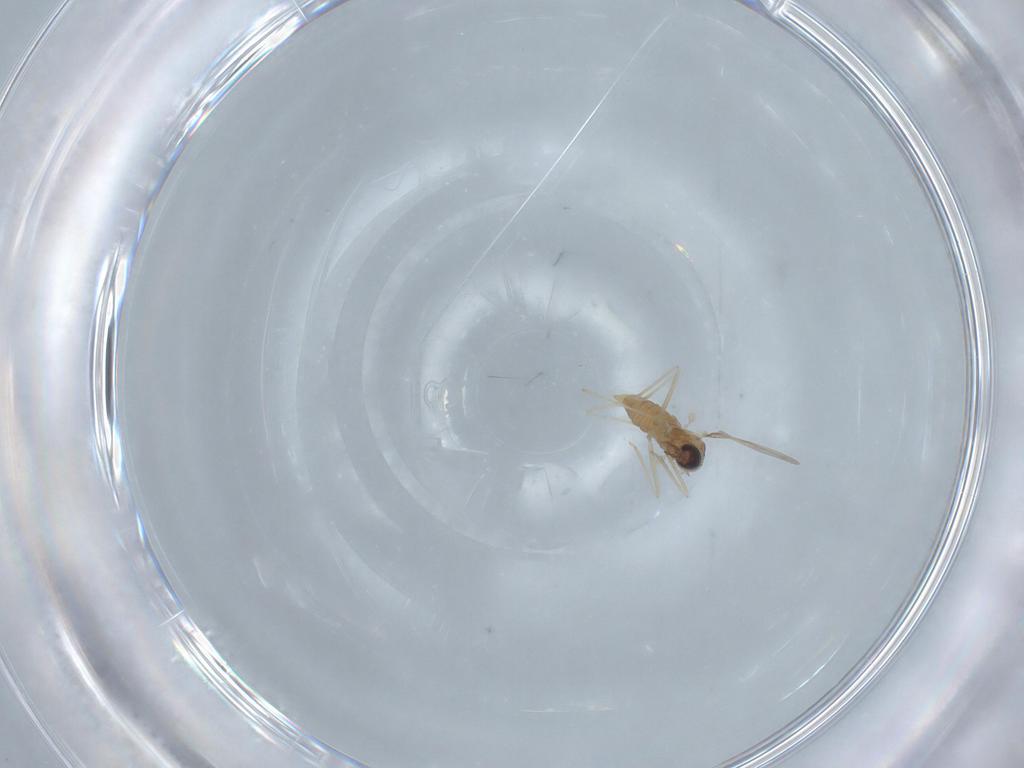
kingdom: Animalia
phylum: Arthropoda
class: Insecta
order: Diptera
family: Cecidomyiidae
